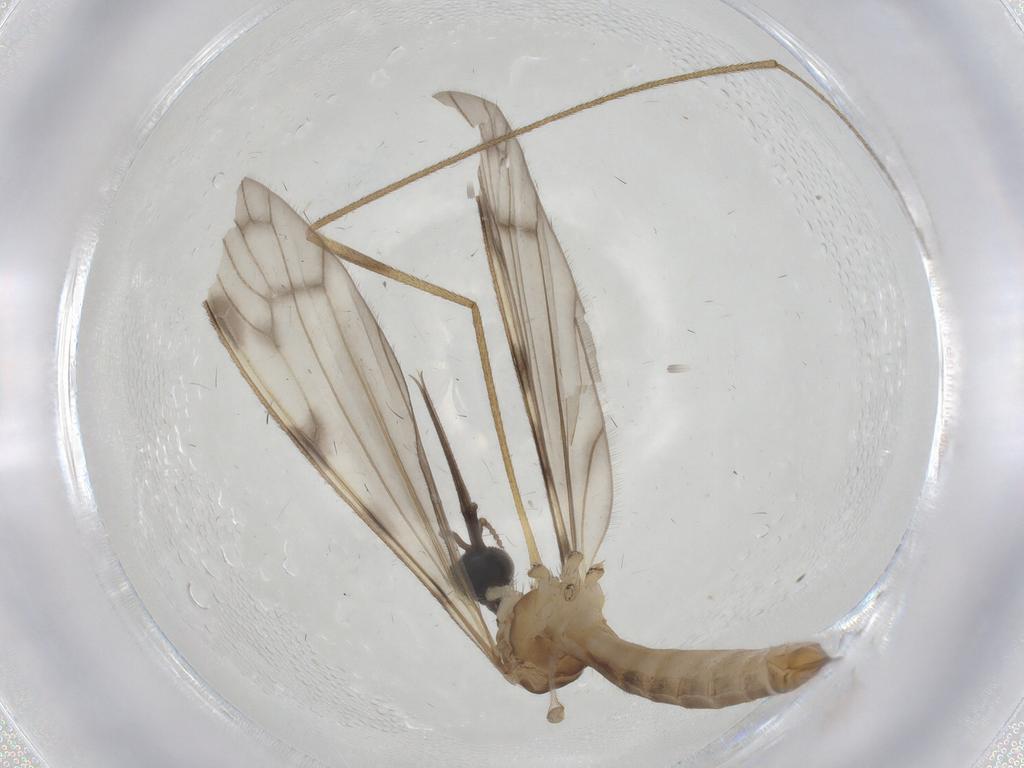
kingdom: Animalia
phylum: Arthropoda
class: Insecta
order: Diptera
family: Limoniidae
